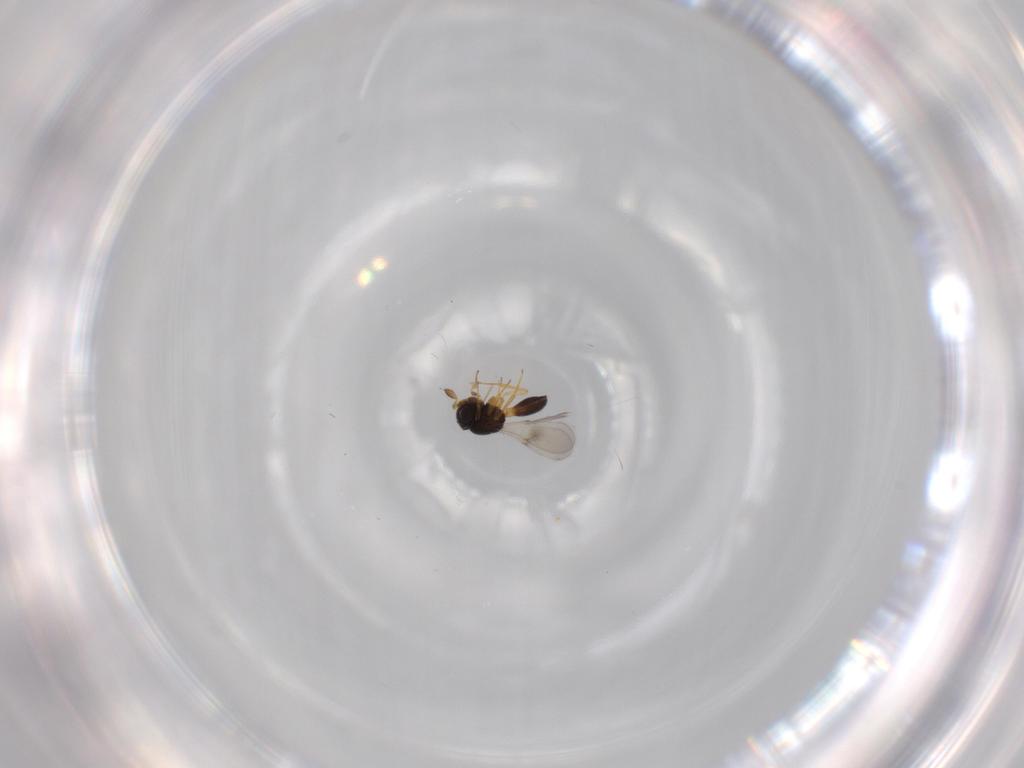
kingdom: Animalia
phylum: Arthropoda
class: Insecta
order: Hymenoptera
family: Scelionidae
